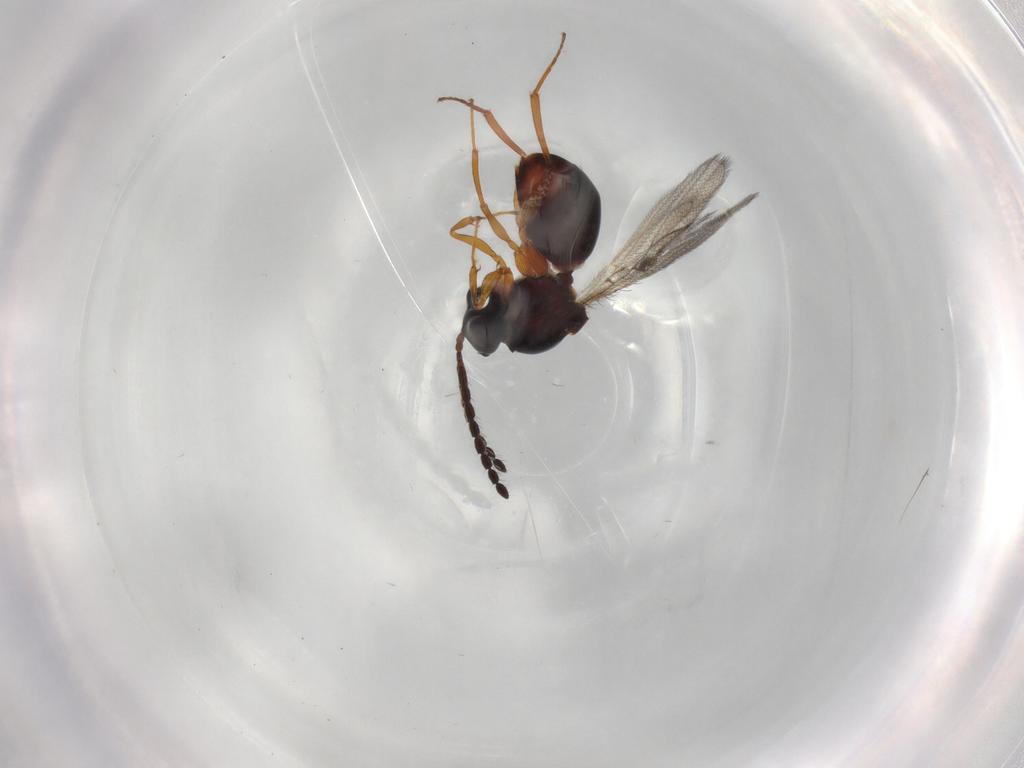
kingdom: Animalia
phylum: Arthropoda
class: Insecta
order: Hymenoptera
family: Figitidae
